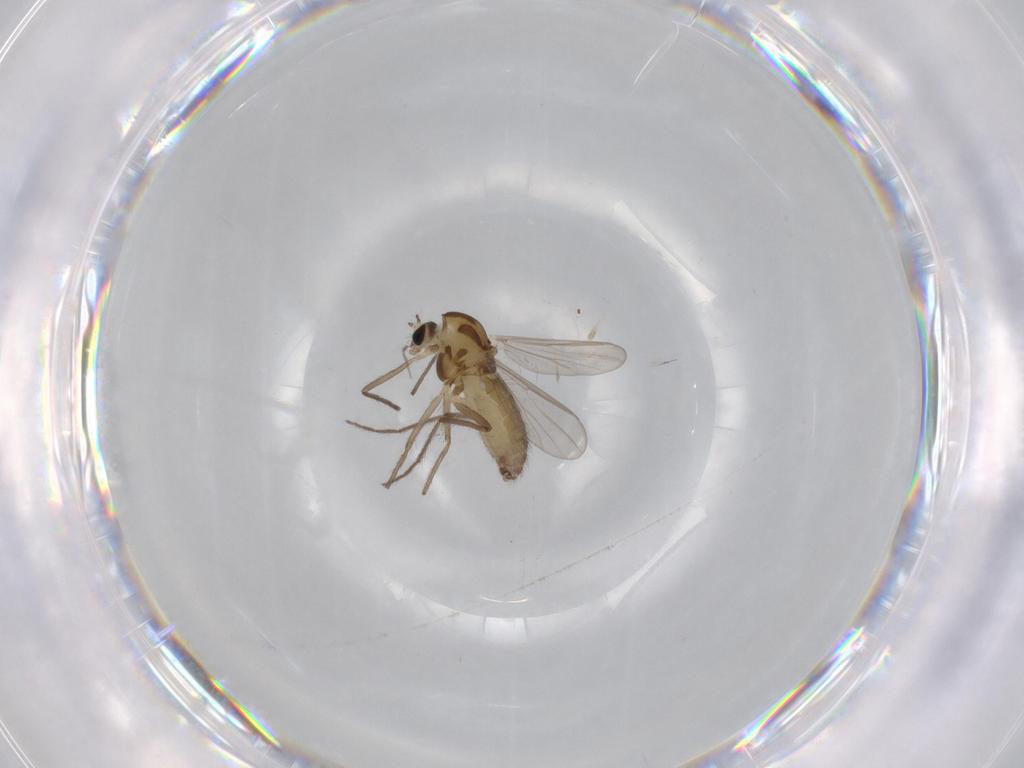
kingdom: Animalia
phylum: Arthropoda
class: Insecta
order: Diptera
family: Chironomidae
